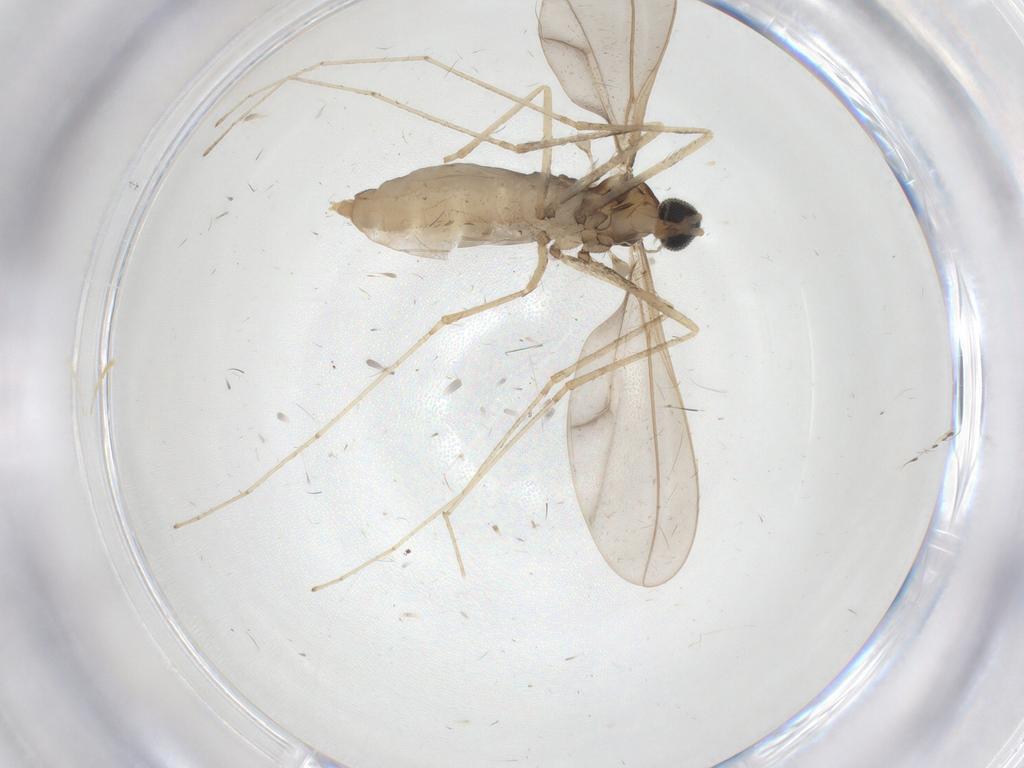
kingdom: Animalia
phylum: Arthropoda
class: Insecta
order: Diptera
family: Cecidomyiidae
